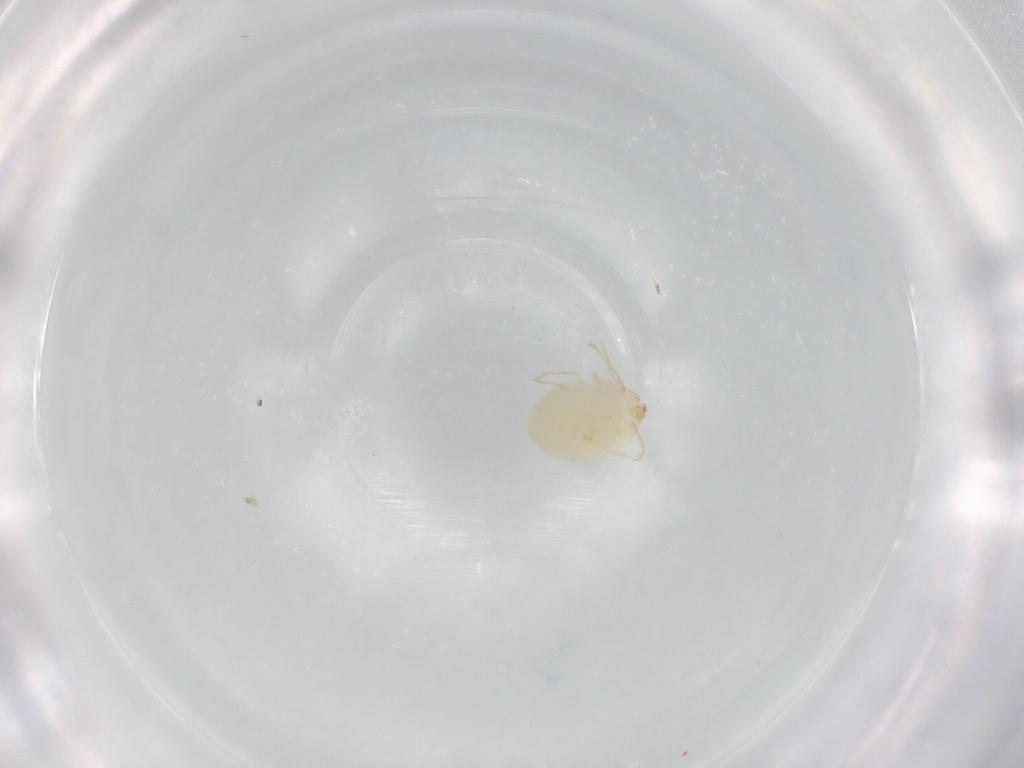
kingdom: Animalia
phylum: Arthropoda
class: Arachnida
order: Trombidiformes
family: Erythraeidae
